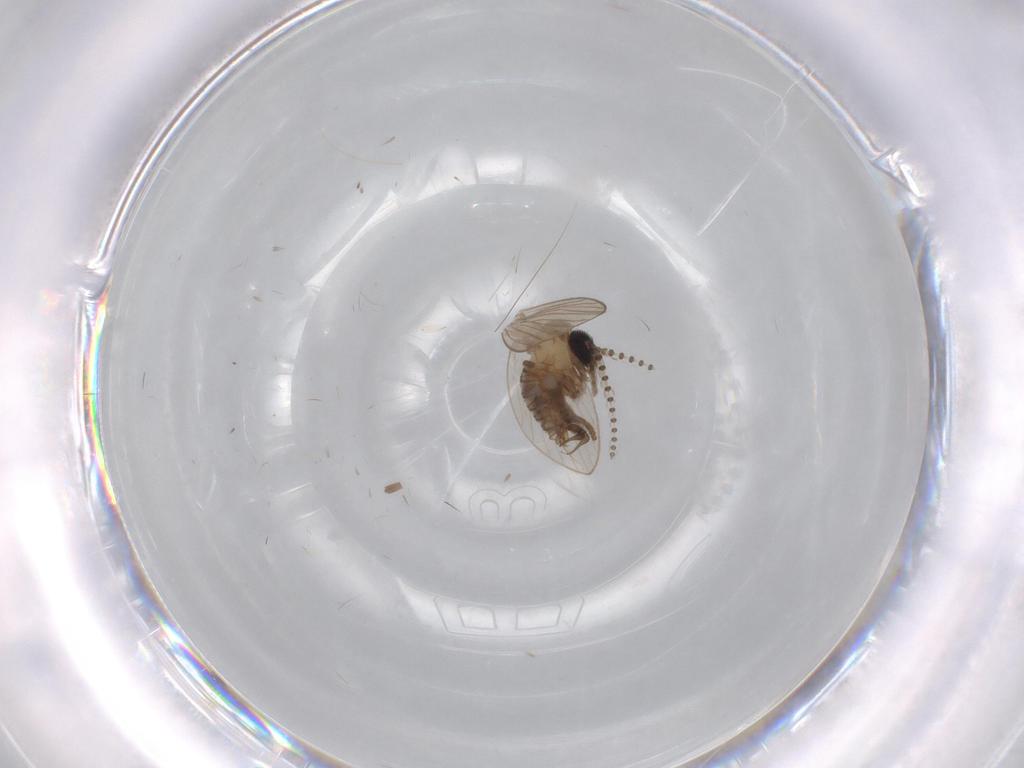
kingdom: Animalia
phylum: Arthropoda
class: Insecta
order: Diptera
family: Psychodidae
